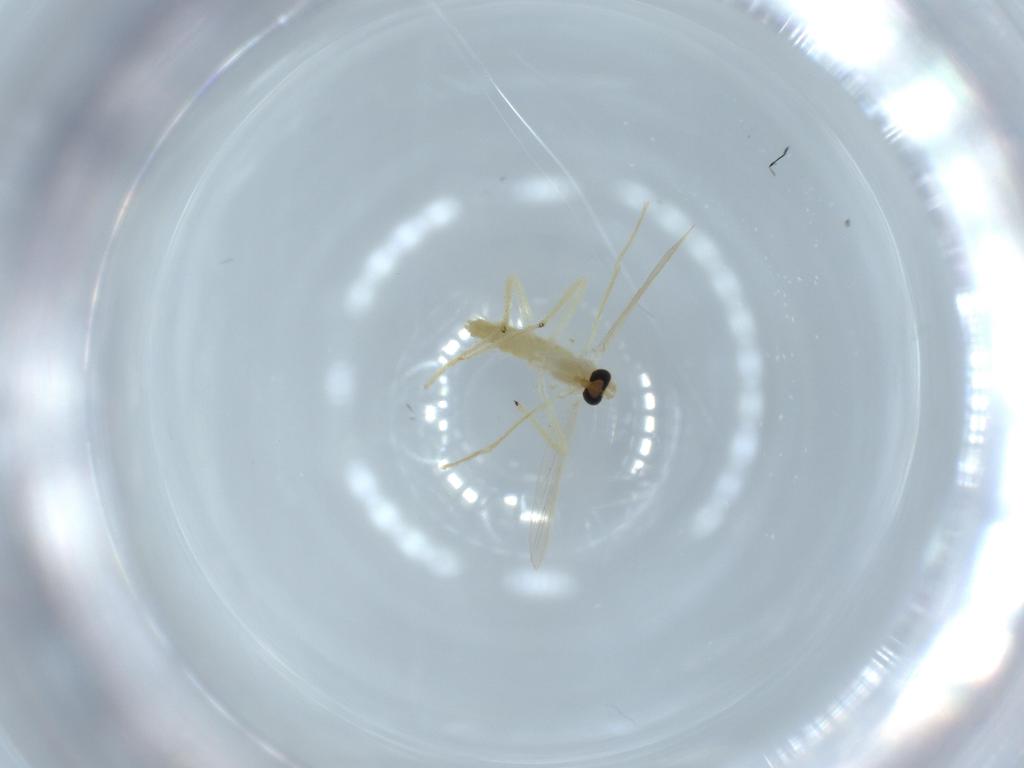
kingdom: Animalia
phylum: Arthropoda
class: Insecta
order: Diptera
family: Chironomidae
